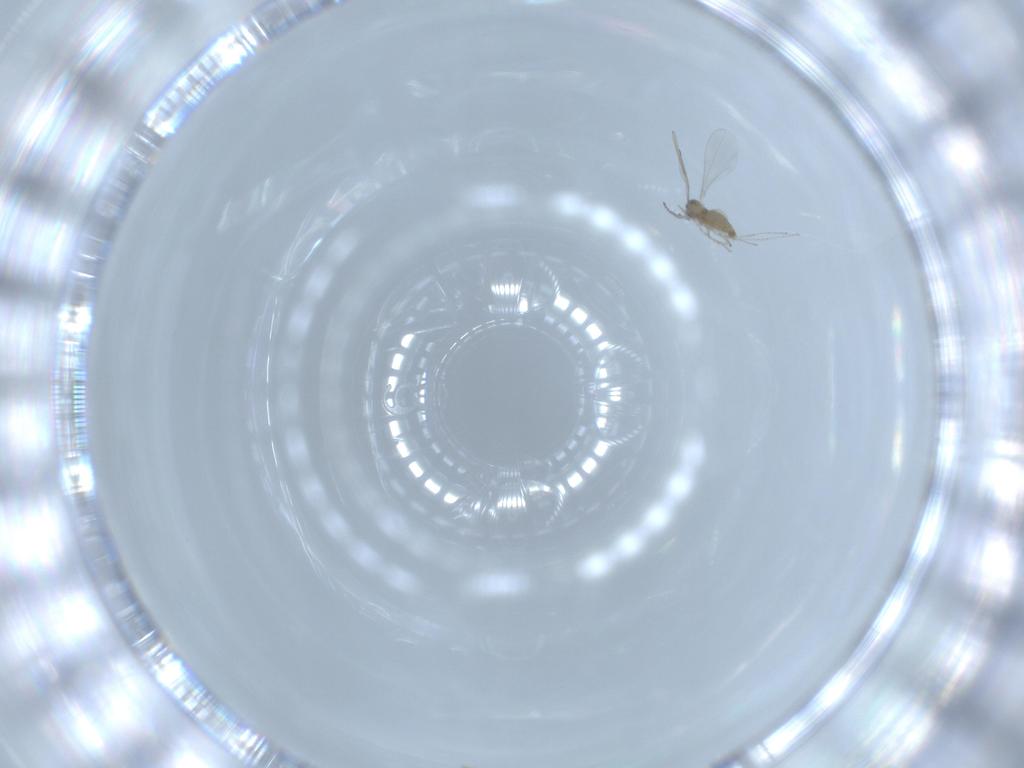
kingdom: Animalia
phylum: Arthropoda
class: Insecta
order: Diptera
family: Cecidomyiidae
